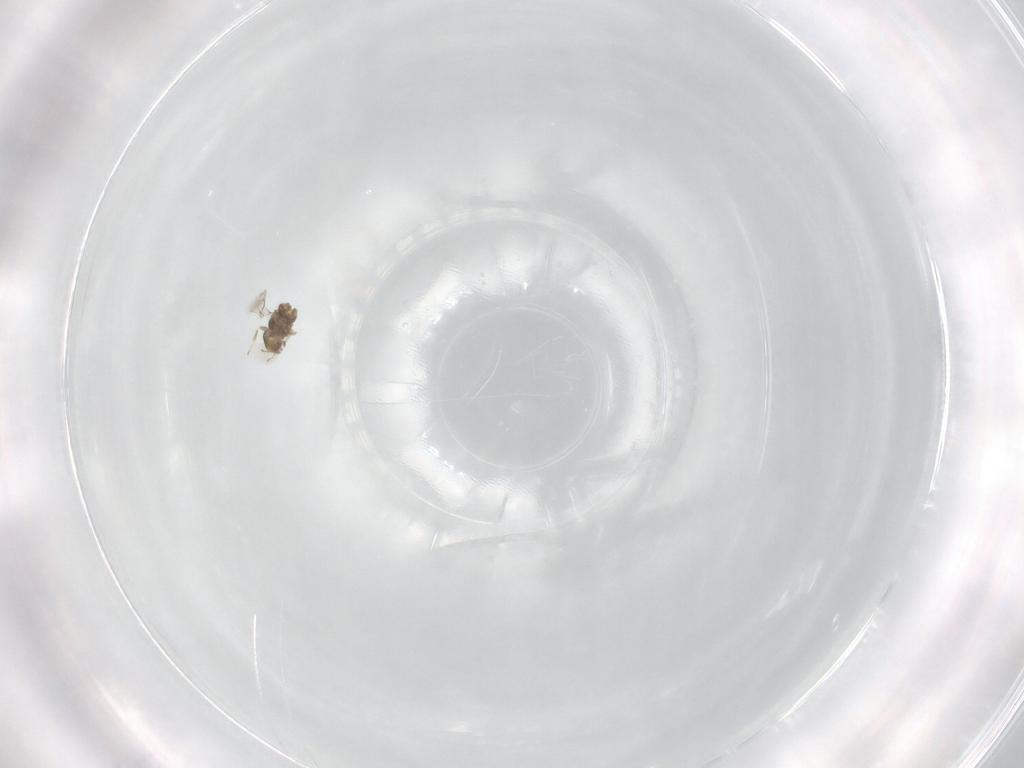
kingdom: Animalia
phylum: Arthropoda
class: Insecta
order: Hymenoptera
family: Eulophidae
